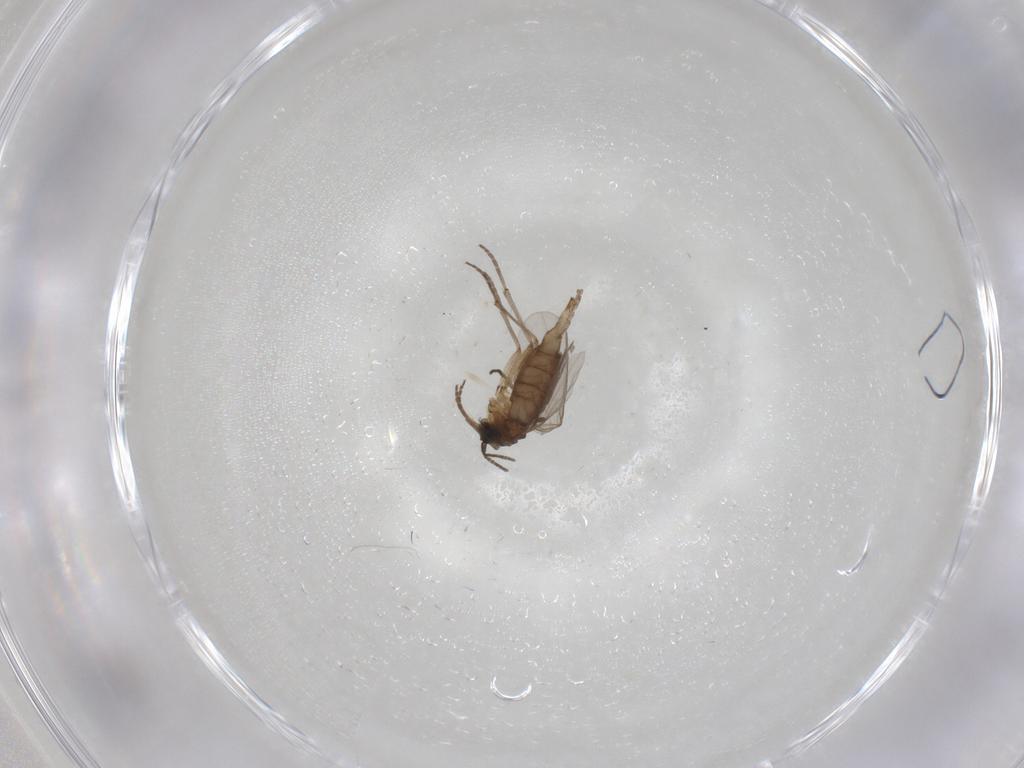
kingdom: Animalia
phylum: Arthropoda
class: Insecta
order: Diptera
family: Sciaridae
